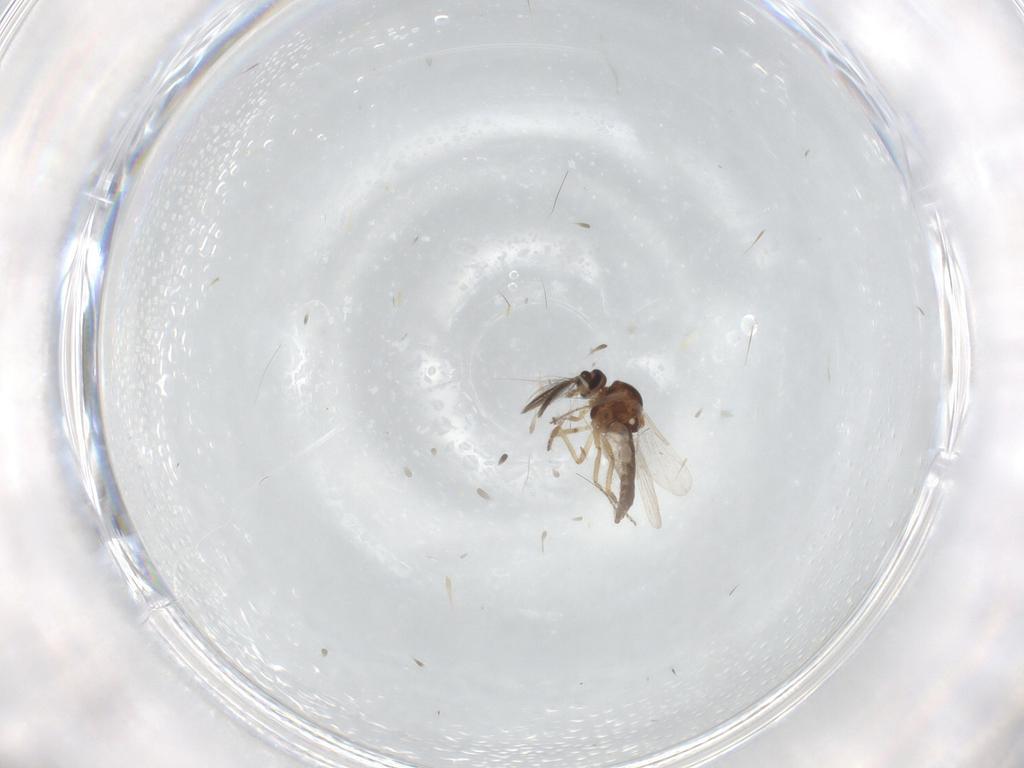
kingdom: Animalia
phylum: Arthropoda
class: Insecta
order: Diptera
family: Ceratopogonidae
